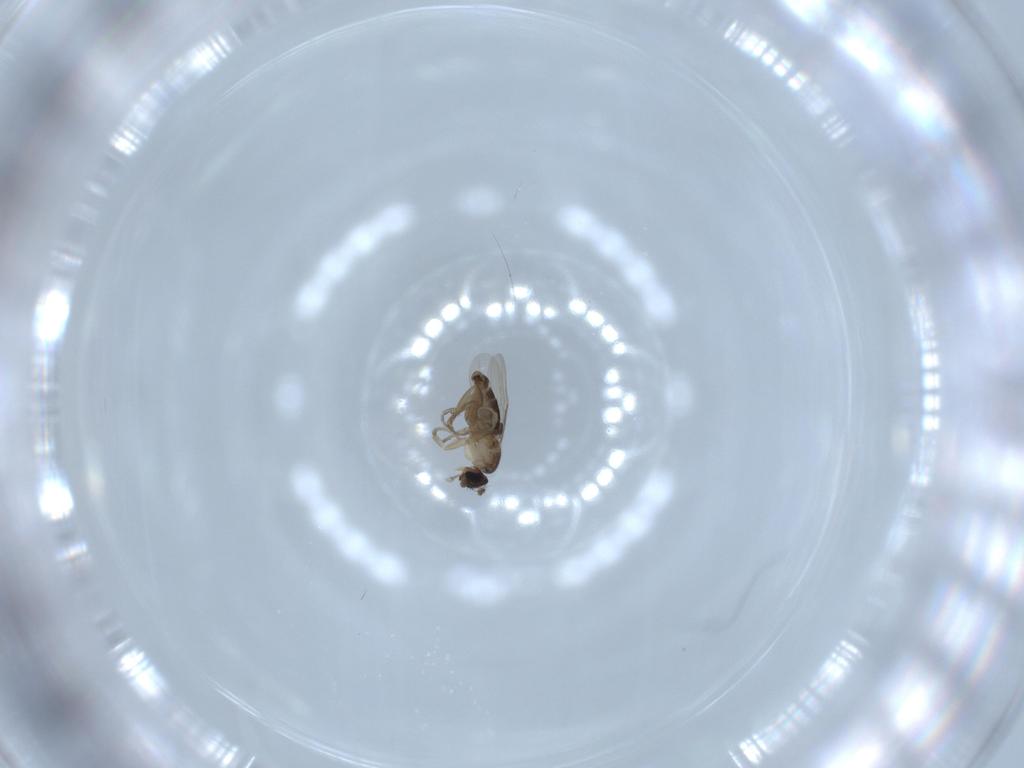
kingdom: Animalia
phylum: Arthropoda
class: Insecta
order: Diptera
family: Phoridae
